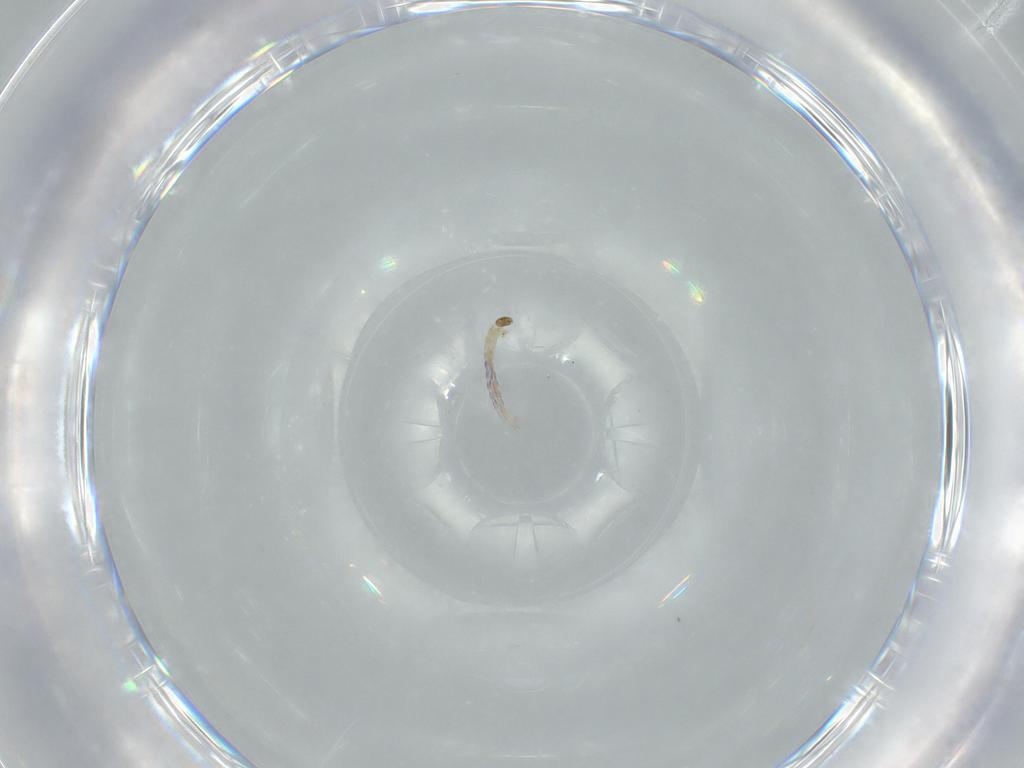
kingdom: Animalia
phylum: Arthropoda
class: Insecta
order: Diptera
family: Chironomidae
